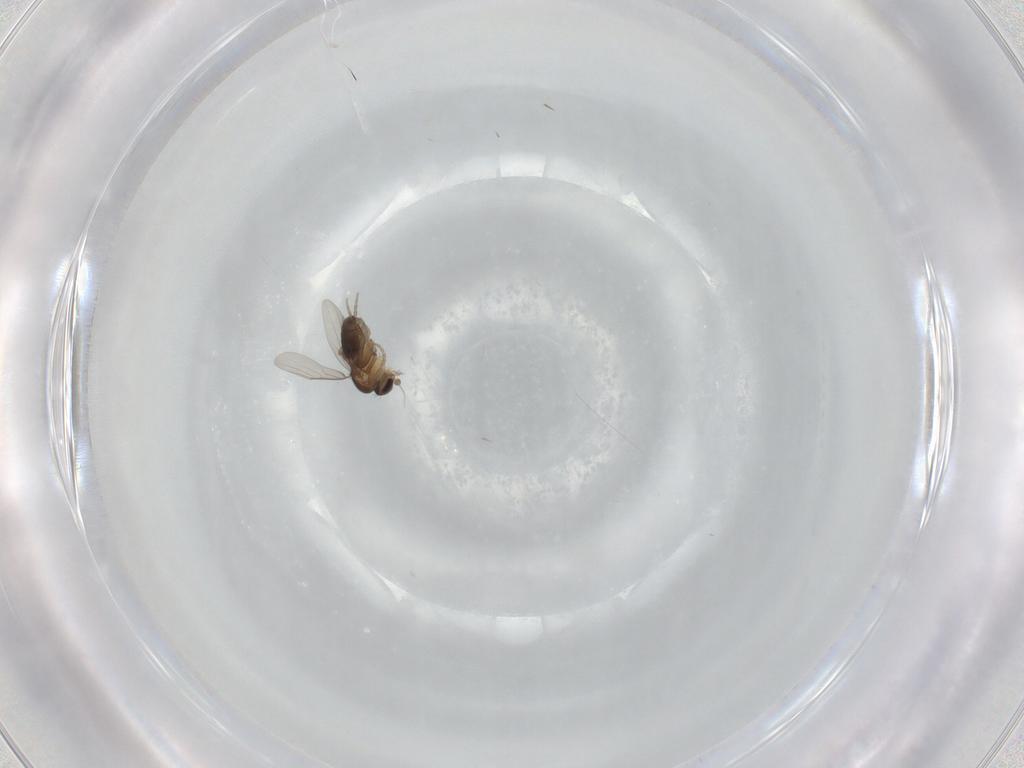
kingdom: Animalia
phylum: Arthropoda
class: Insecta
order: Diptera
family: Phoridae
